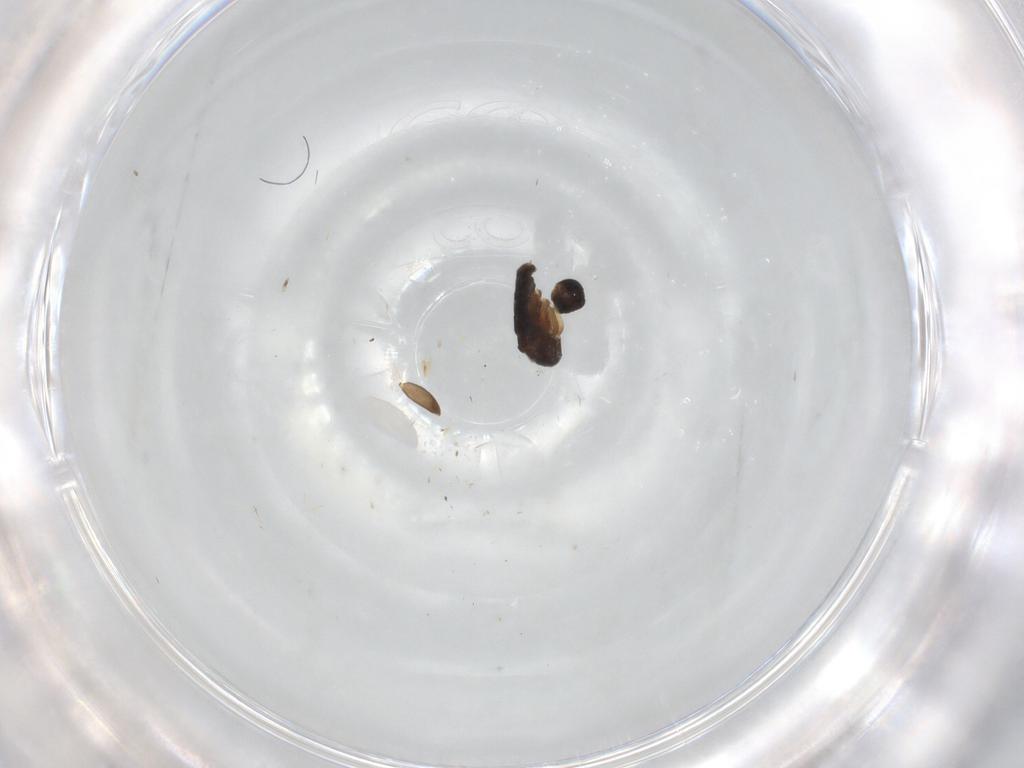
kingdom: Animalia
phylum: Arthropoda
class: Insecta
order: Diptera
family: Phoridae
